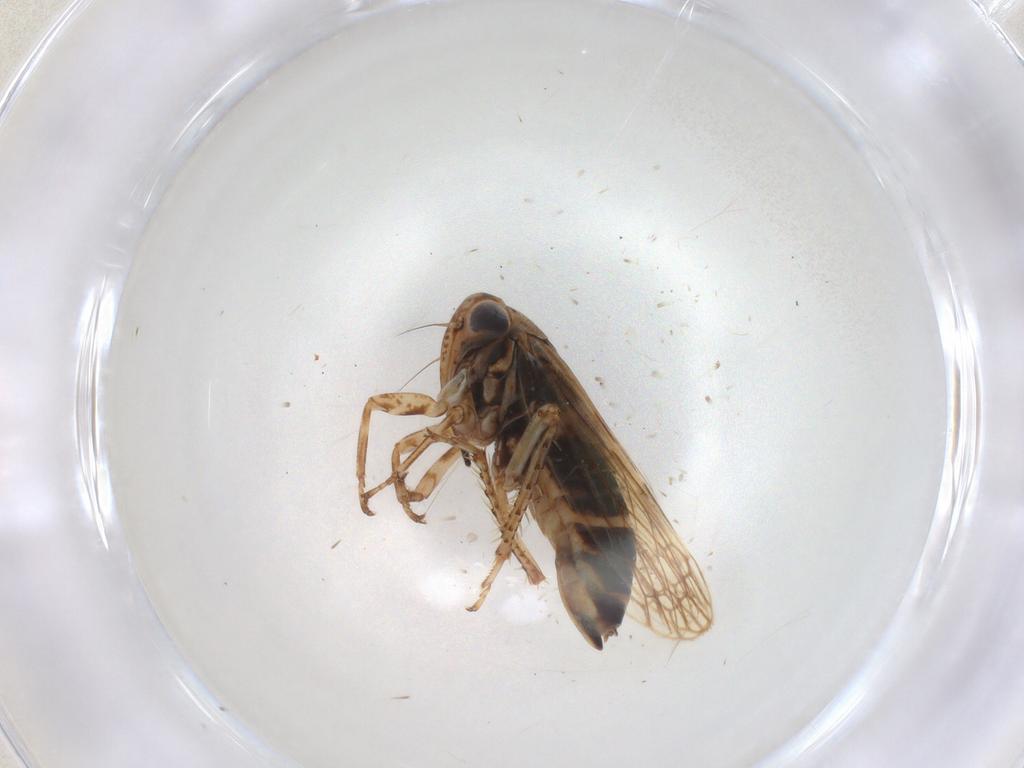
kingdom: Animalia
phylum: Arthropoda
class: Insecta
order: Hemiptera
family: Cicadellidae
